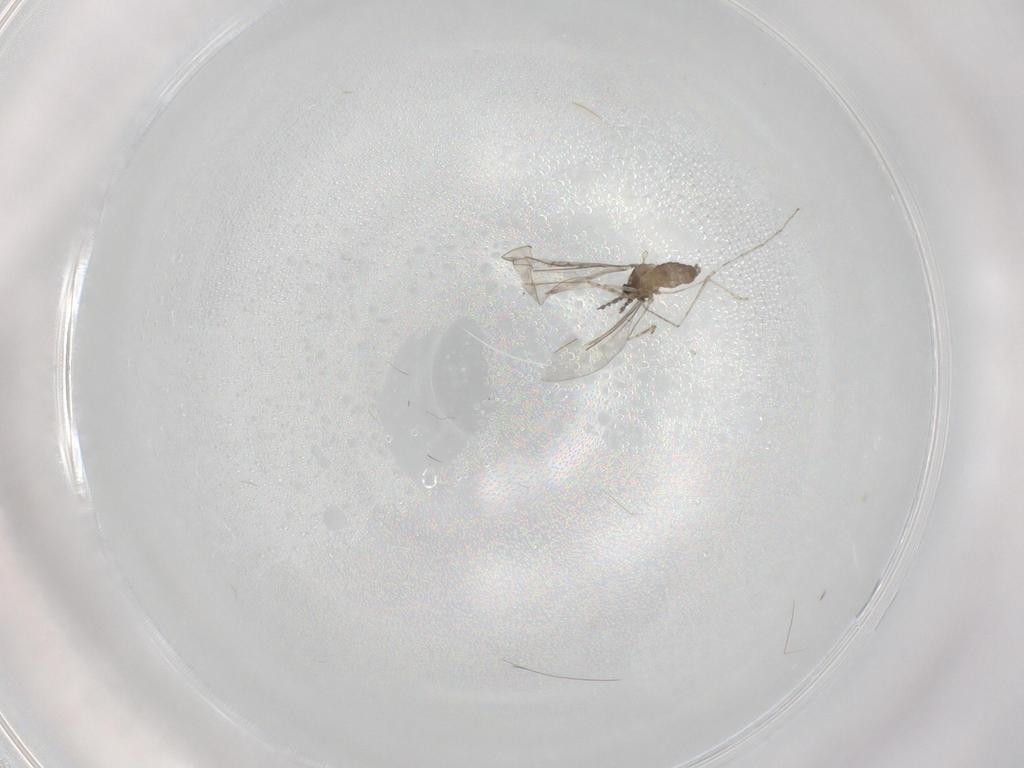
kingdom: Animalia
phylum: Arthropoda
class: Insecta
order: Diptera
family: Cecidomyiidae
